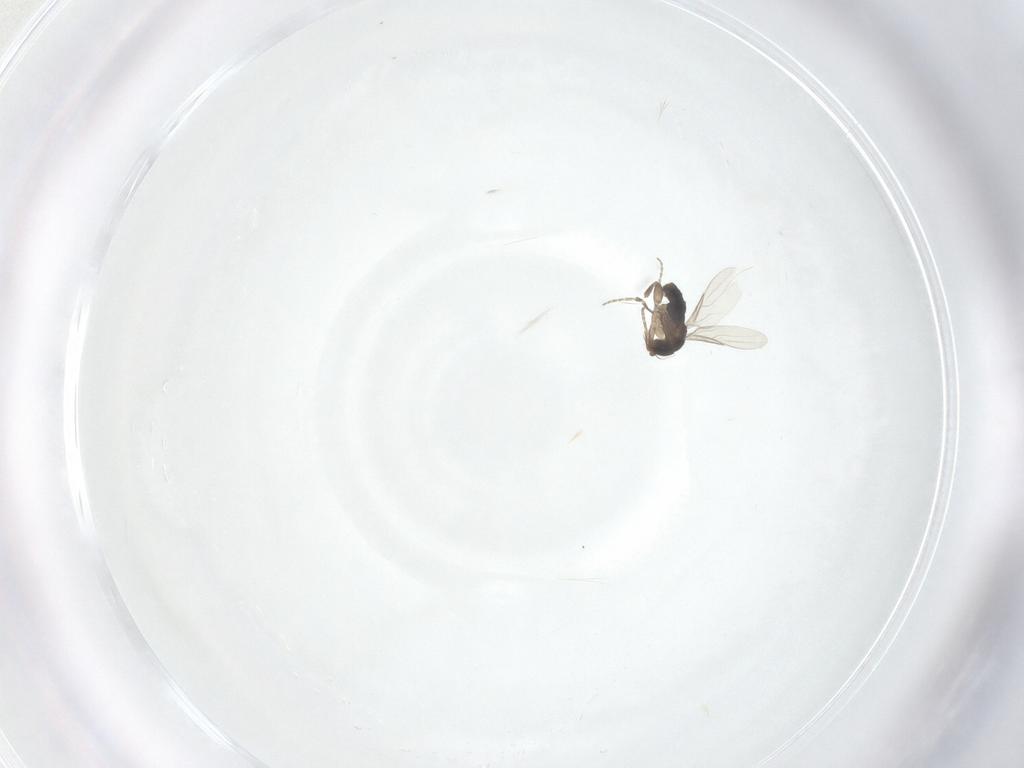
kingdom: Animalia
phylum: Arthropoda
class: Insecta
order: Diptera
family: Phoridae
